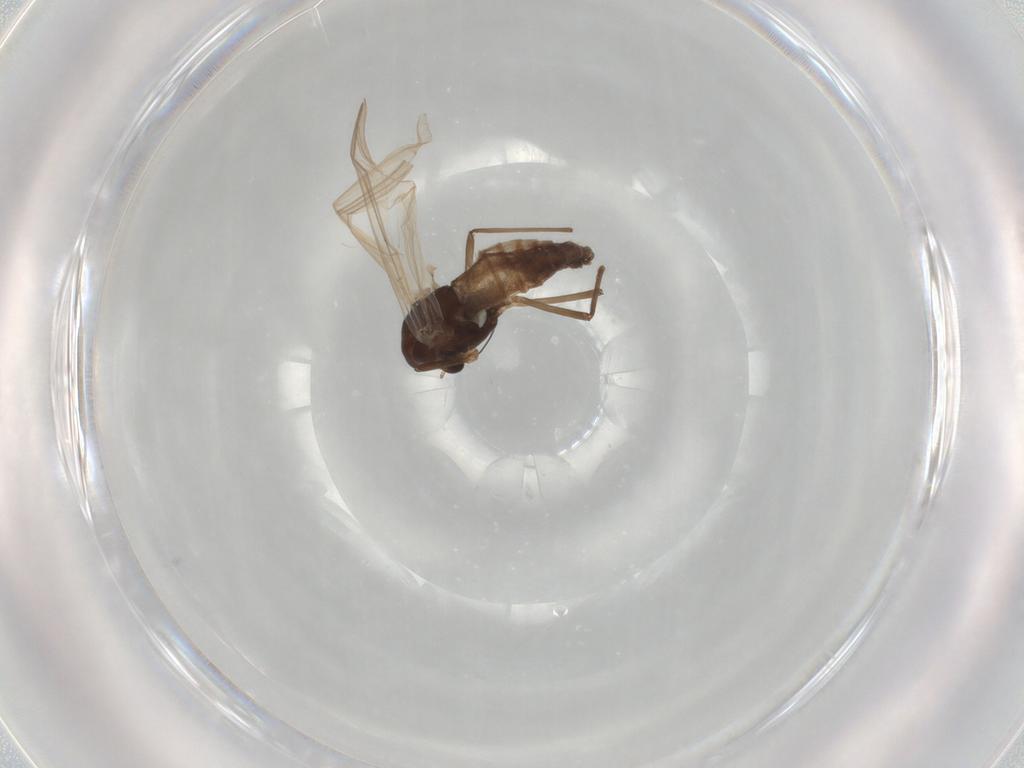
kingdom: Animalia
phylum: Arthropoda
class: Insecta
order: Diptera
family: Chironomidae
